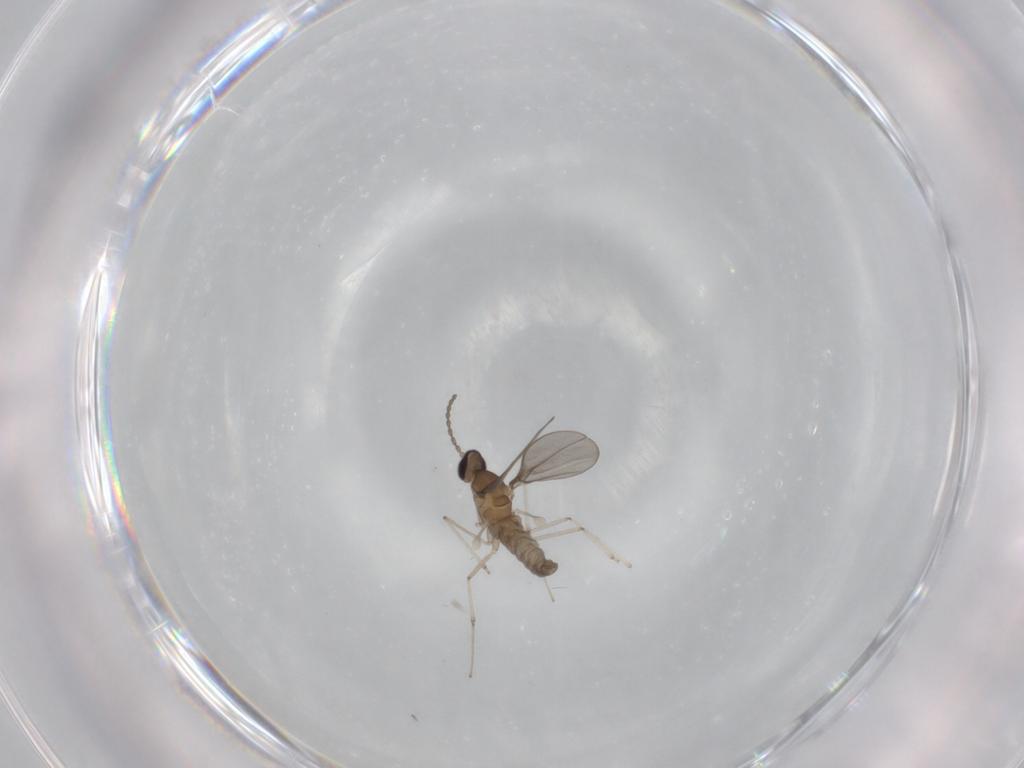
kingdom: Animalia
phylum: Arthropoda
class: Insecta
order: Diptera
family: Cecidomyiidae
